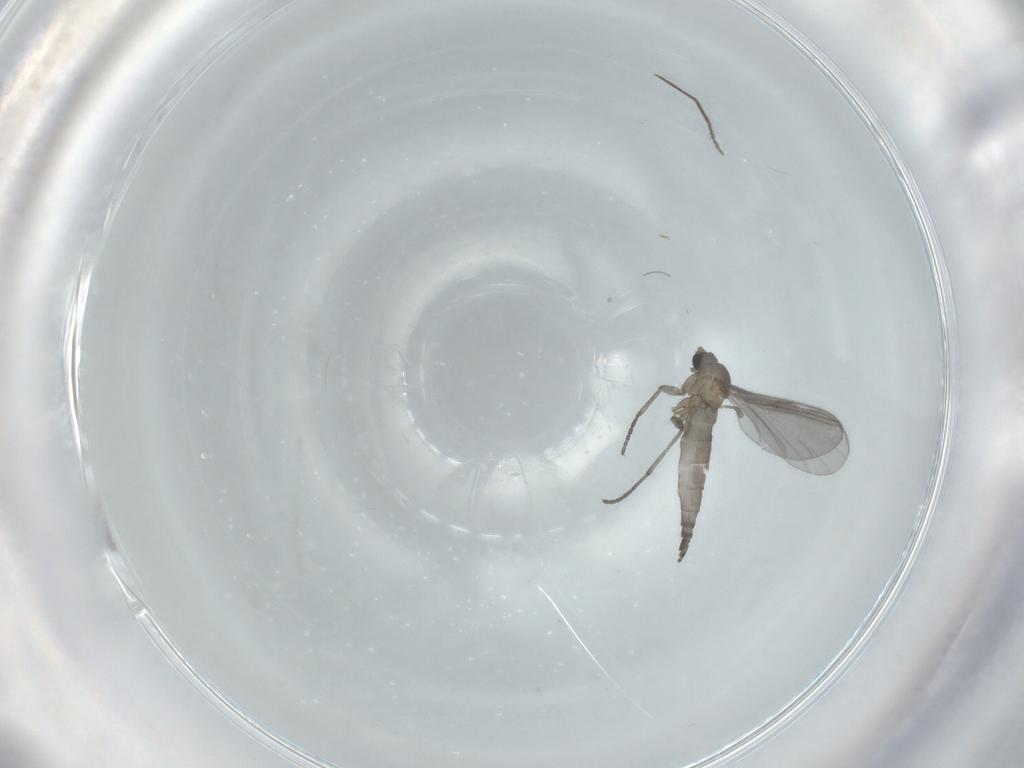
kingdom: Animalia
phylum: Arthropoda
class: Insecta
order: Diptera
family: Sciaridae
